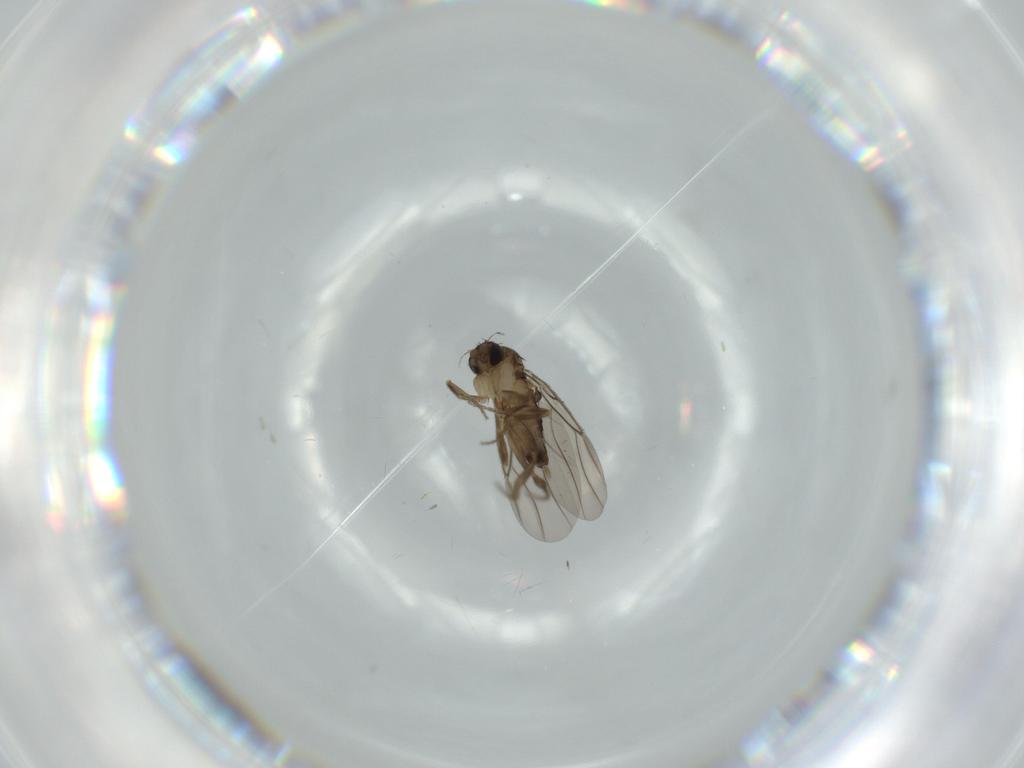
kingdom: Animalia
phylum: Arthropoda
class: Insecta
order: Diptera
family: Phoridae
